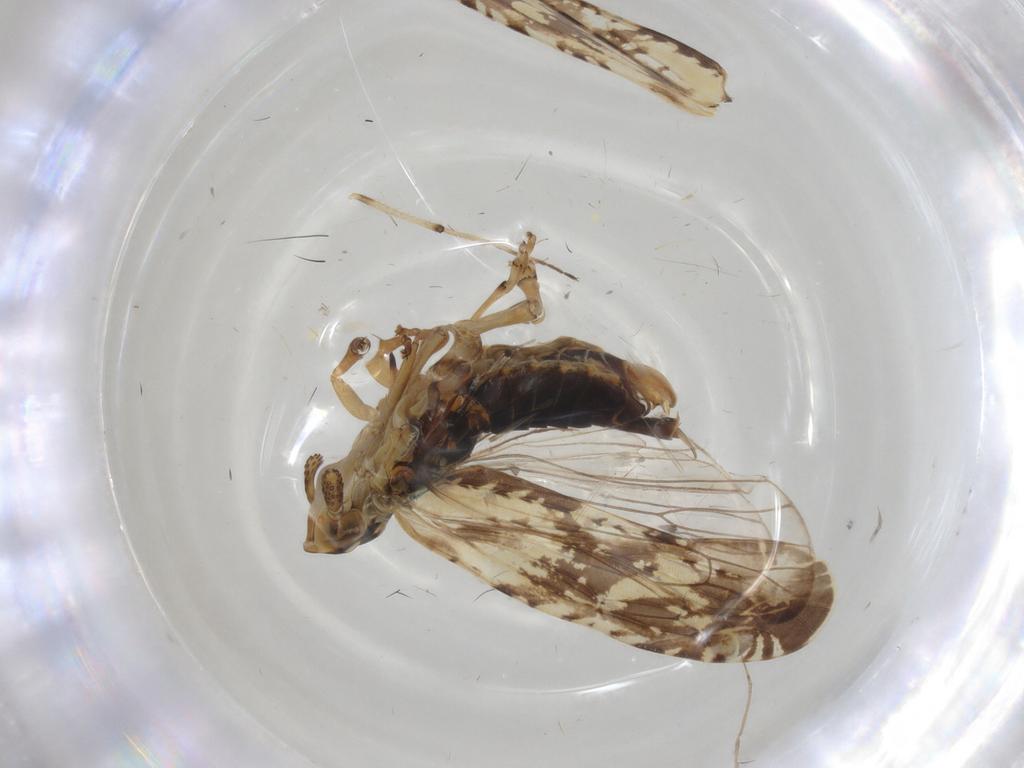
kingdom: Animalia
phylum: Arthropoda
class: Insecta
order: Hemiptera
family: Achilidae
